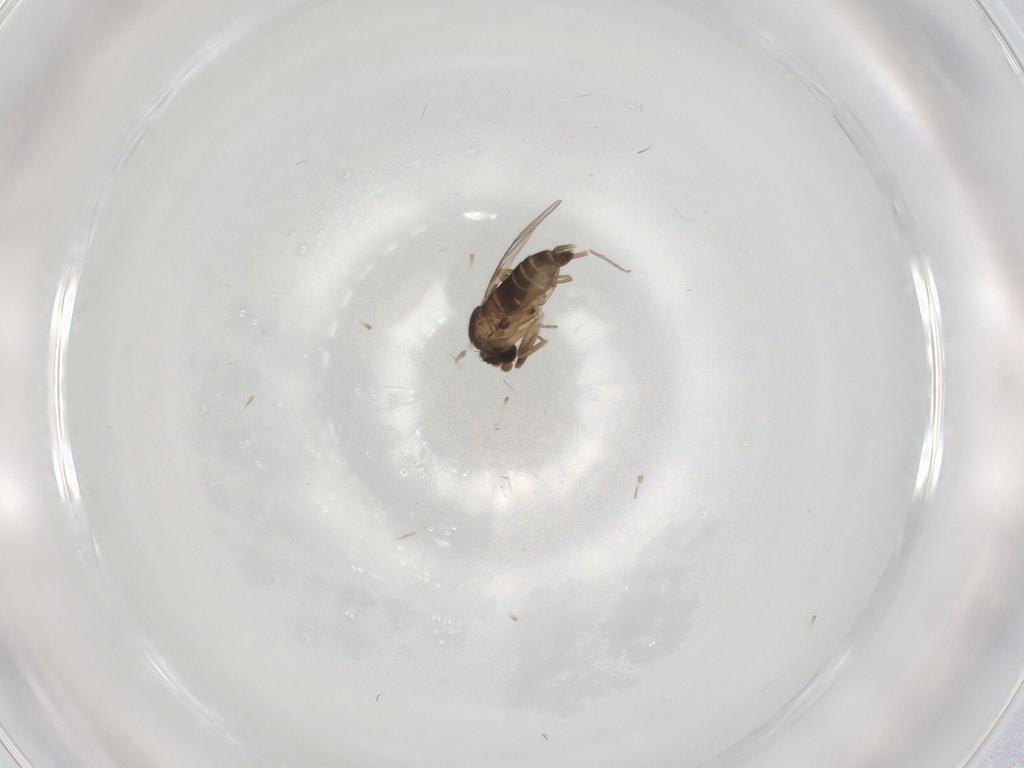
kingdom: Animalia
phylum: Arthropoda
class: Insecta
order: Diptera
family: Phoridae
